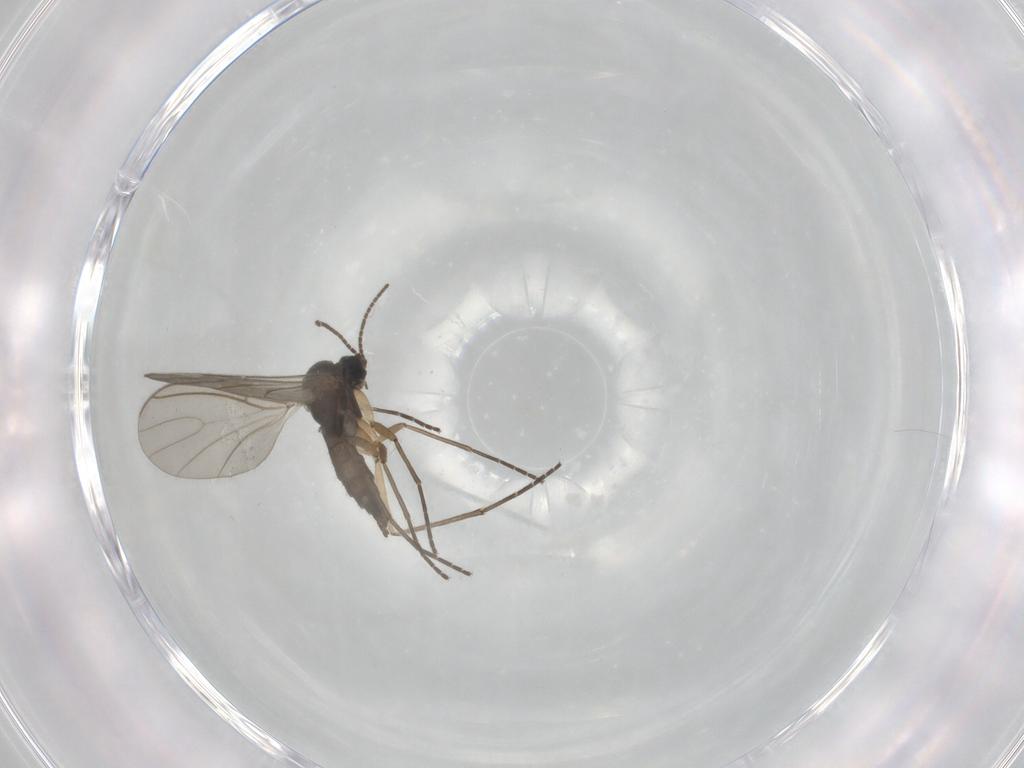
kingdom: Animalia
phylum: Arthropoda
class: Insecta
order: Diptera
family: Sciaridae
